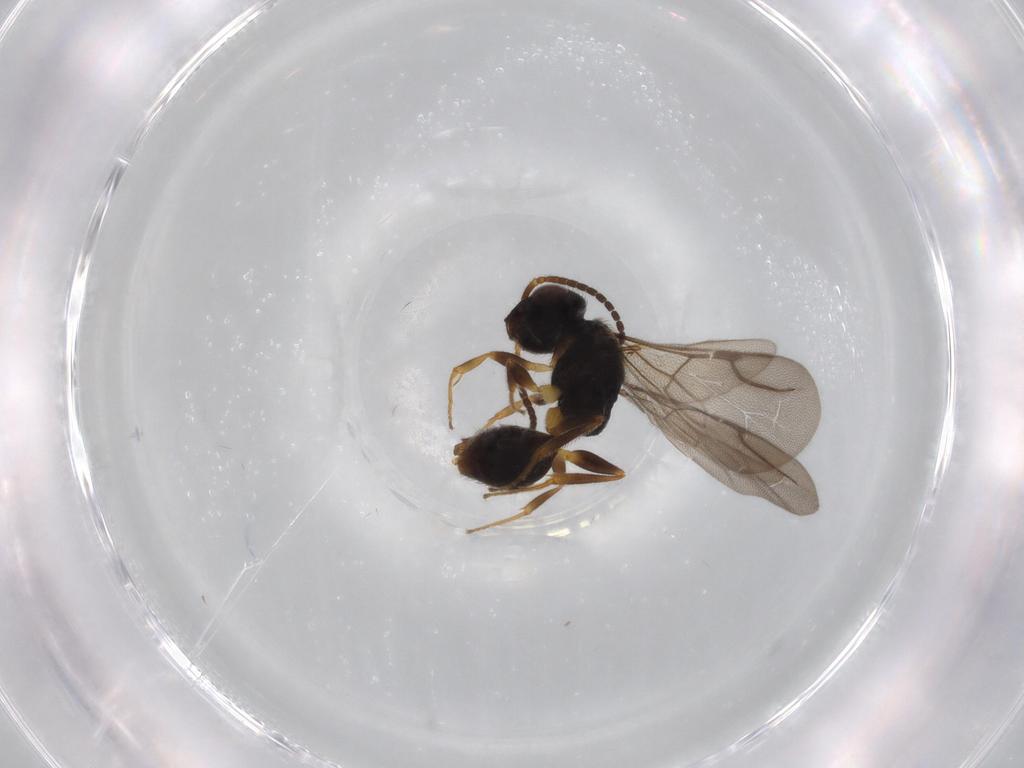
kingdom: Animalia
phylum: Arthropoda
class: Insecta
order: Hymenoptera
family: Bethylidae
